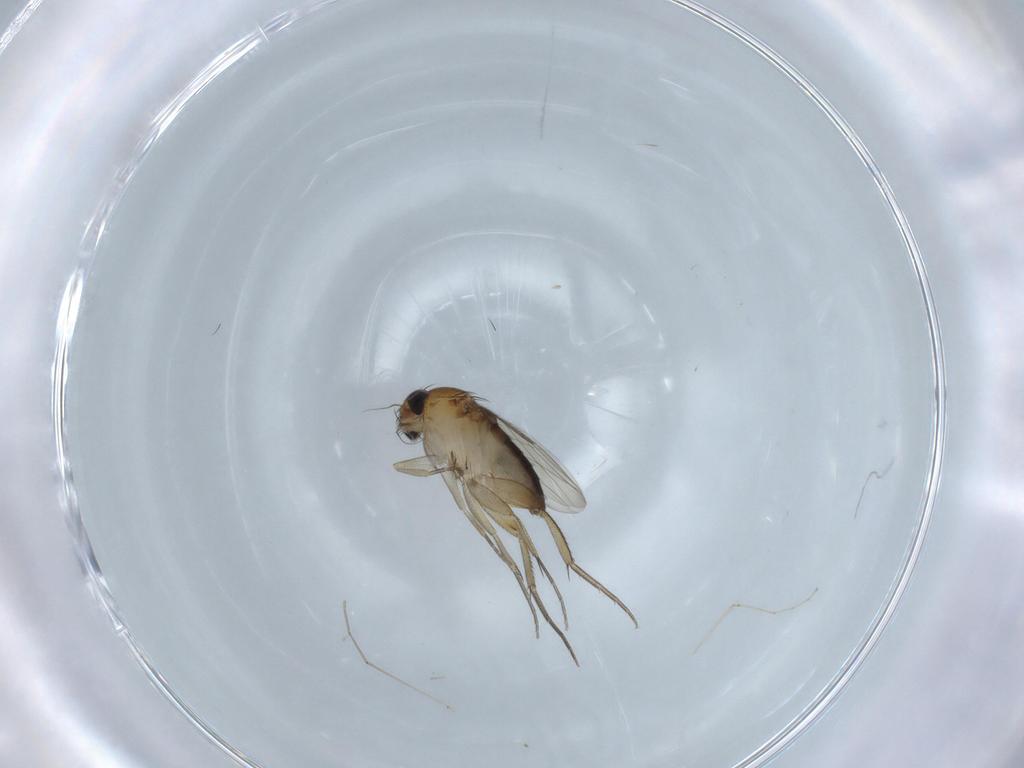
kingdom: Animalia
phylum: Arthropoda
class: Insecta
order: Diptera
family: Phoridae
